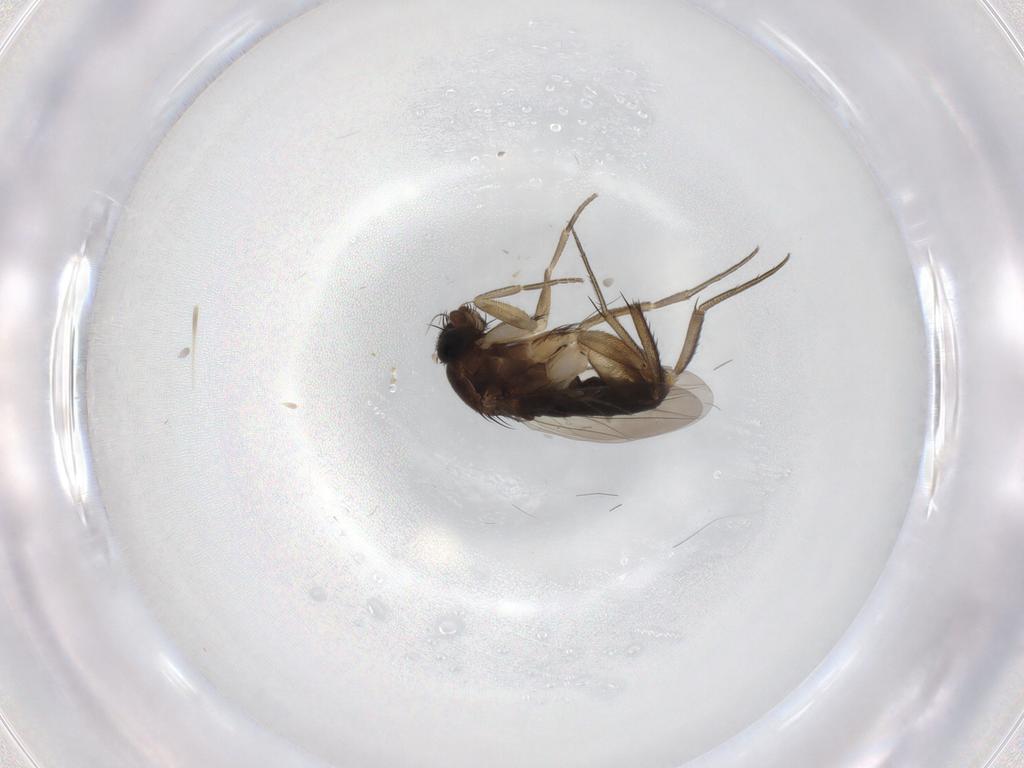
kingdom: Animalia
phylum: Arthropoda
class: Insecta
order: Diptera
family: Phoridae
